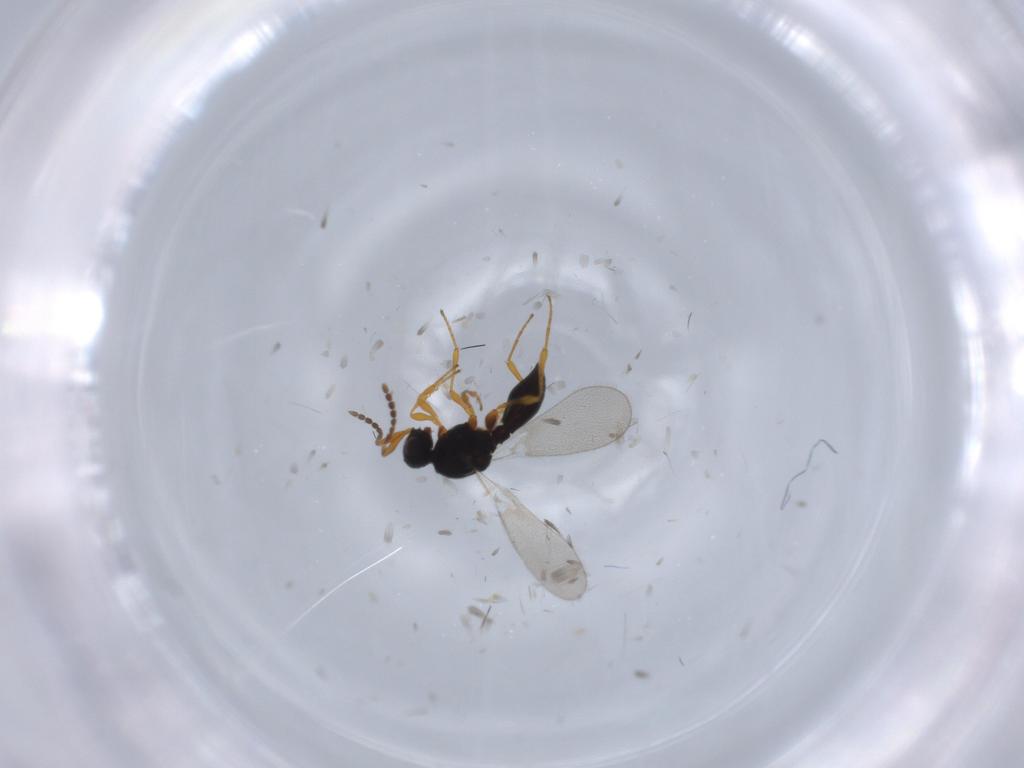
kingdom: Animalia
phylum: Arthropoda
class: Insecta
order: Diptera
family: Mythicomyiidae
